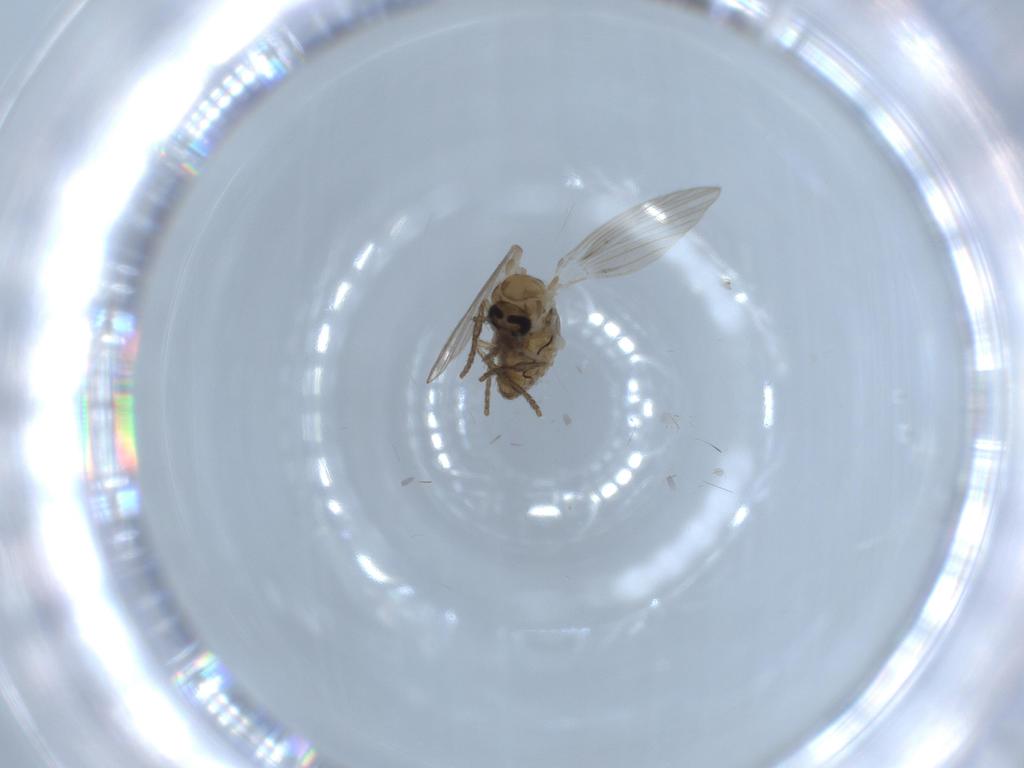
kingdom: Animalia
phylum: Arthropoda
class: Insecta
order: Diptera
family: Psychodidae
